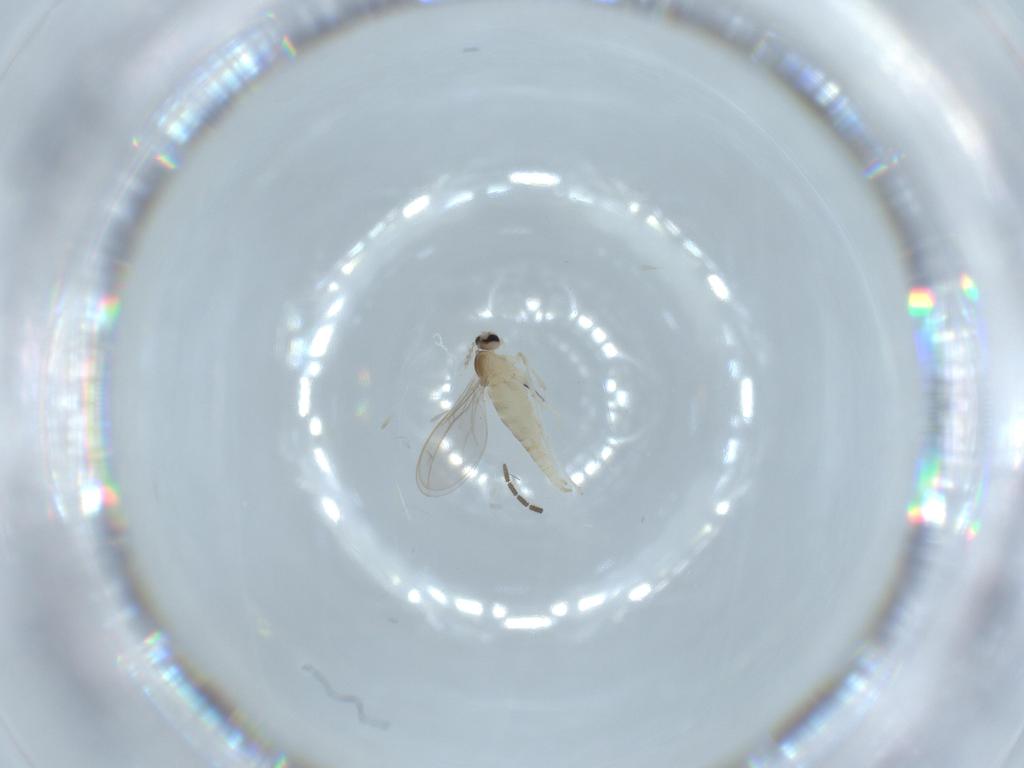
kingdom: Animalia
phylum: Arthropoda
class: Insecta
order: Diptera
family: Cecidomyiidae
